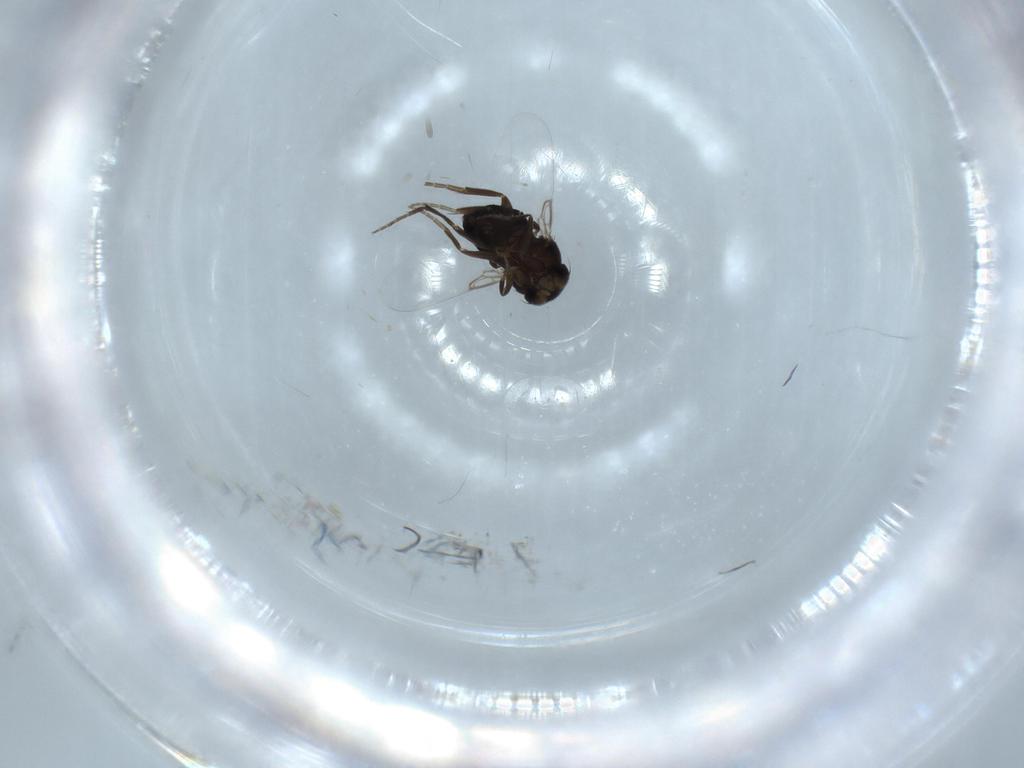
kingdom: Animalia
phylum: Arthropoda
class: Insecta
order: Diptera
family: Phoridae
